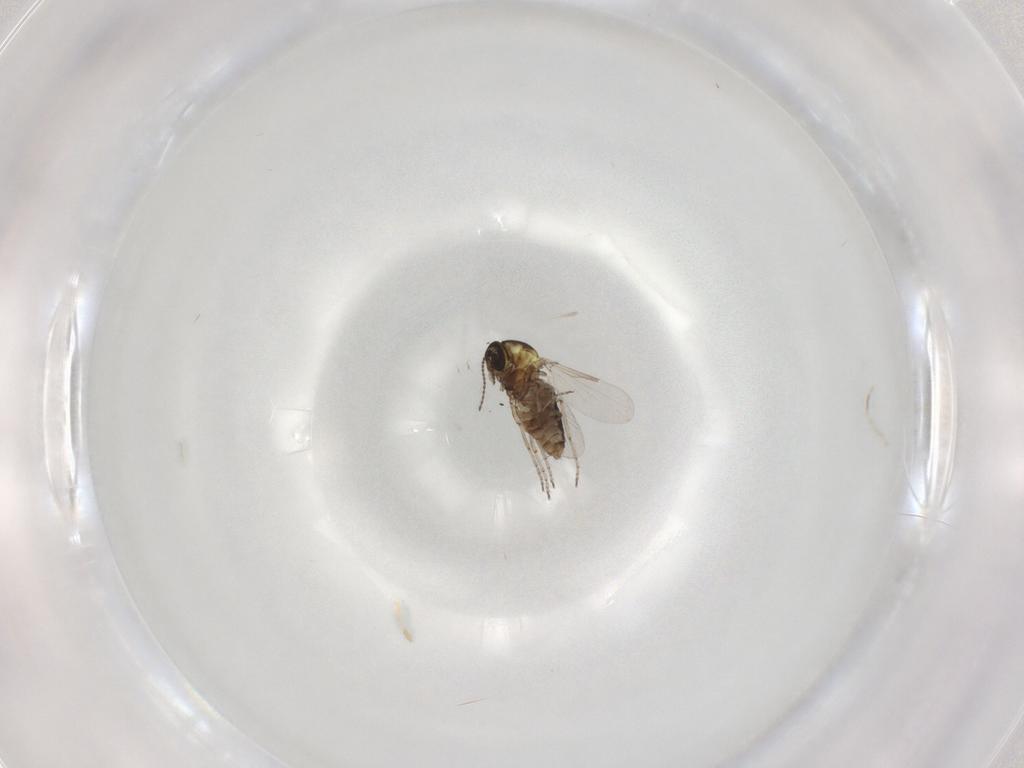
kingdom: Animalia
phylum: Arthropoda
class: Insecta
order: Diptera
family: Ceratopogonidae
